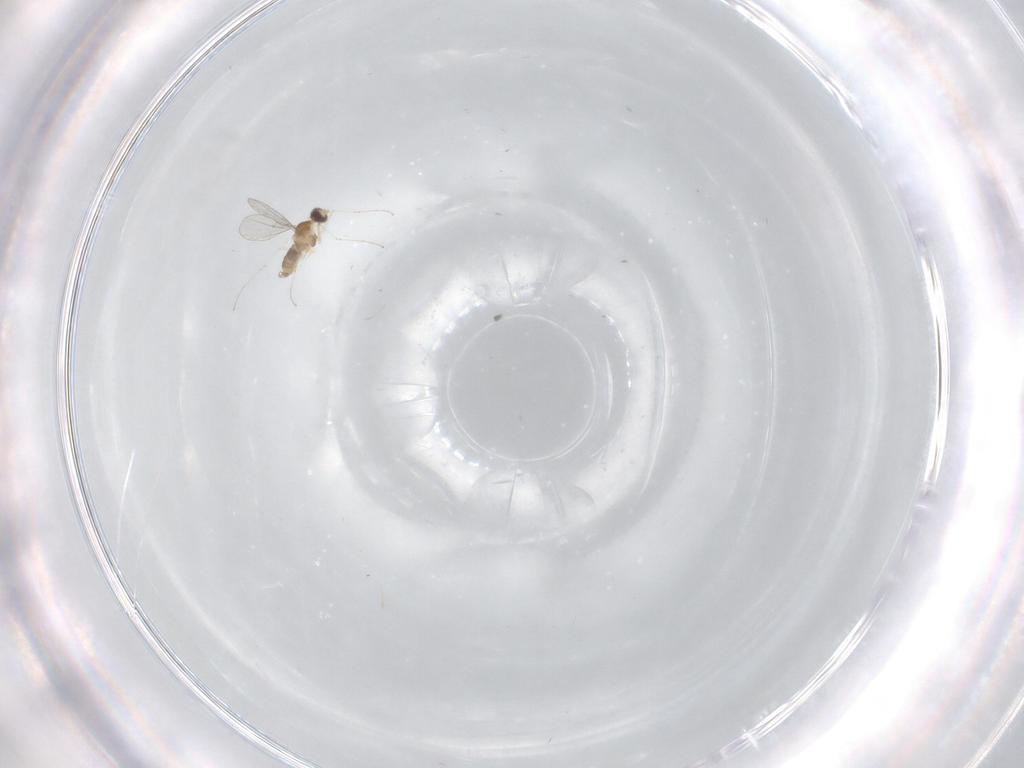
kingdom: Animalia
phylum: Arthropoda
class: Insecta
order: Diptera
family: Cecidomyiidae
